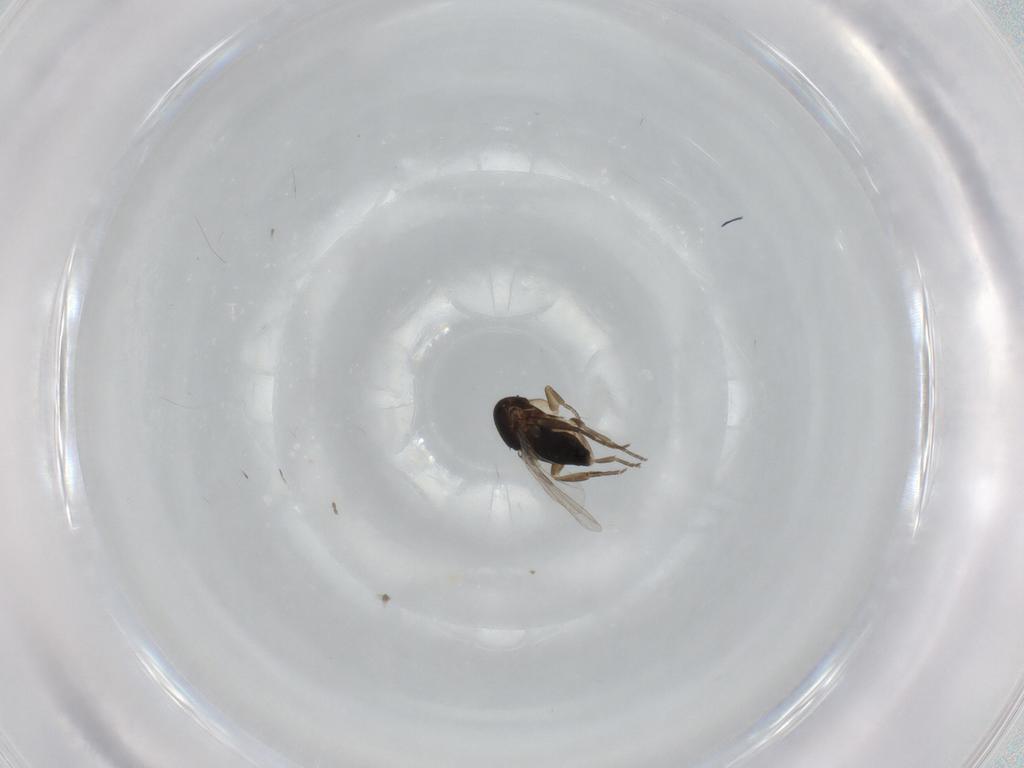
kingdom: Animalia
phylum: Arthropoda
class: Insecta
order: Diptera
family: Phoridae
